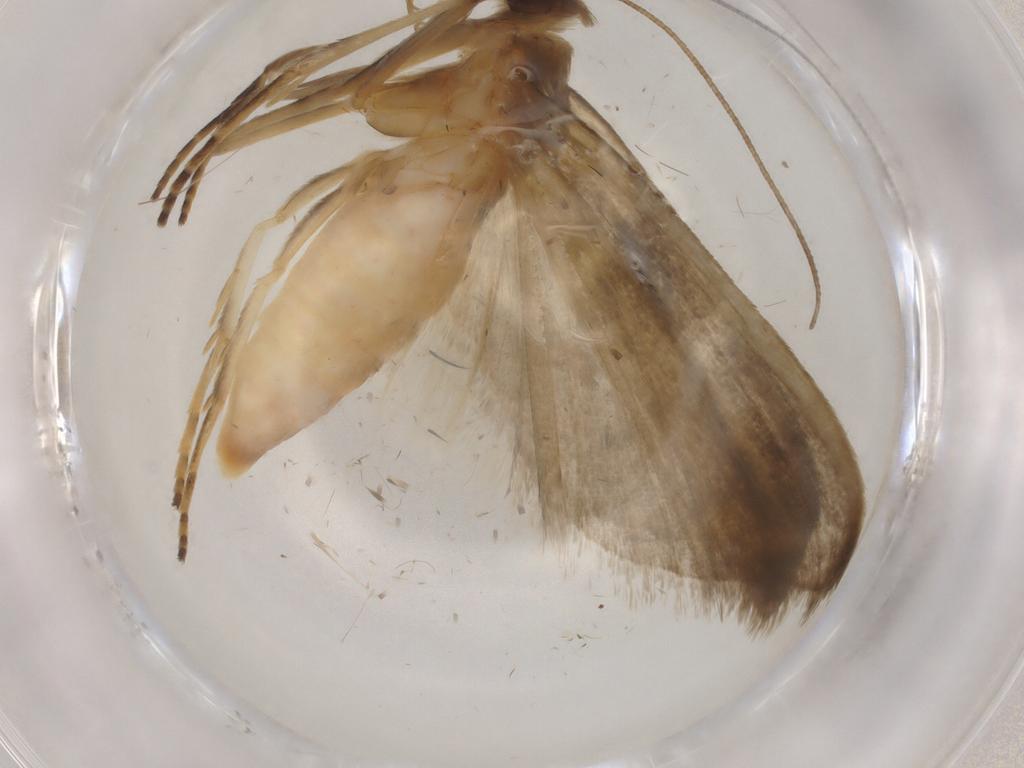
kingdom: Animalia
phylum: Arthropoda
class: Insecta
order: Lepidoptera
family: Noctuidae
